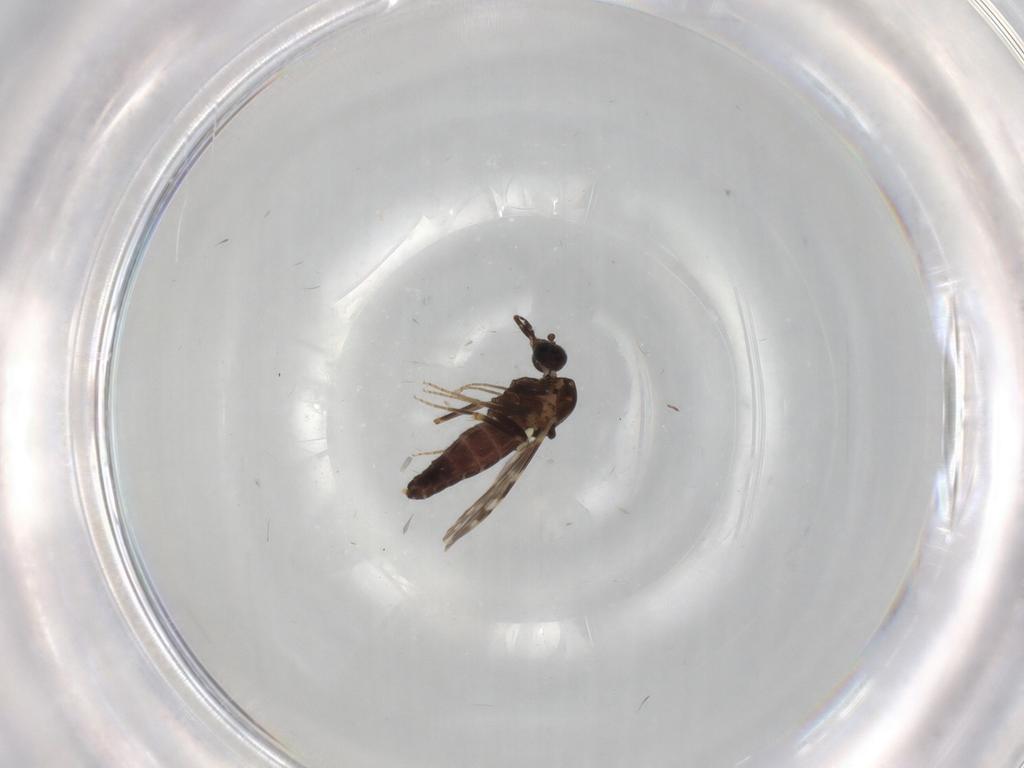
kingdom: Animalia
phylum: Arthropoda
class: Insecta
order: Diptera
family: Ceratopogonidae
